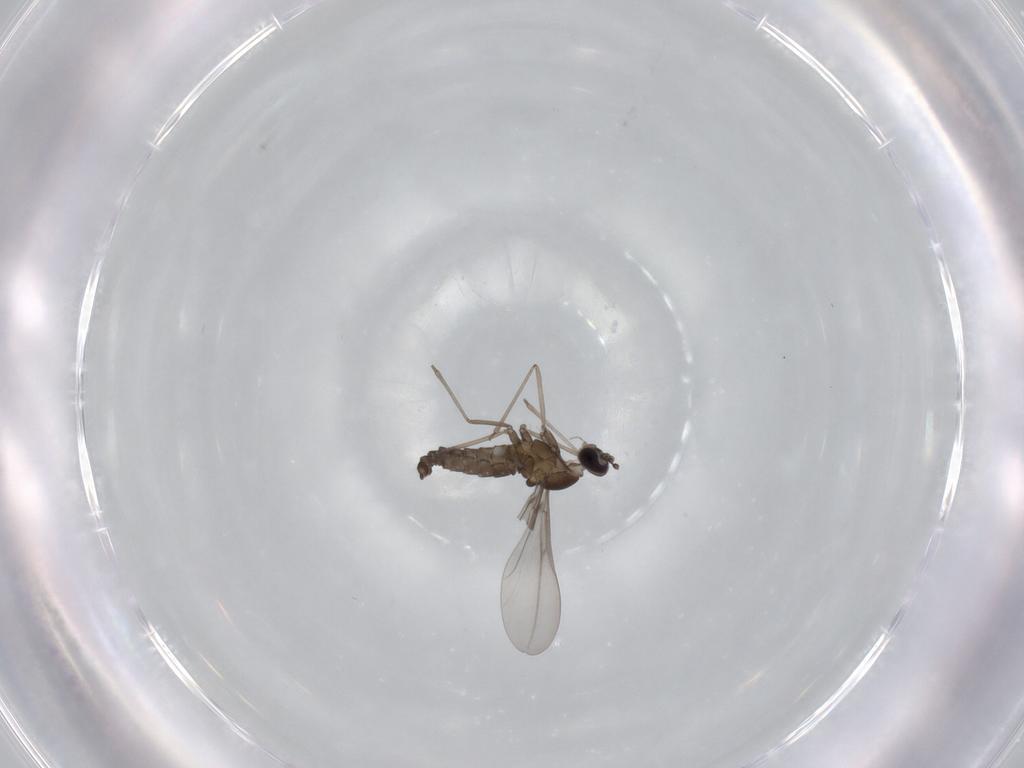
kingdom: Animalia
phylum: Arthropoda
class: Insecta
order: Diptera
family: Cecidomyiidae
